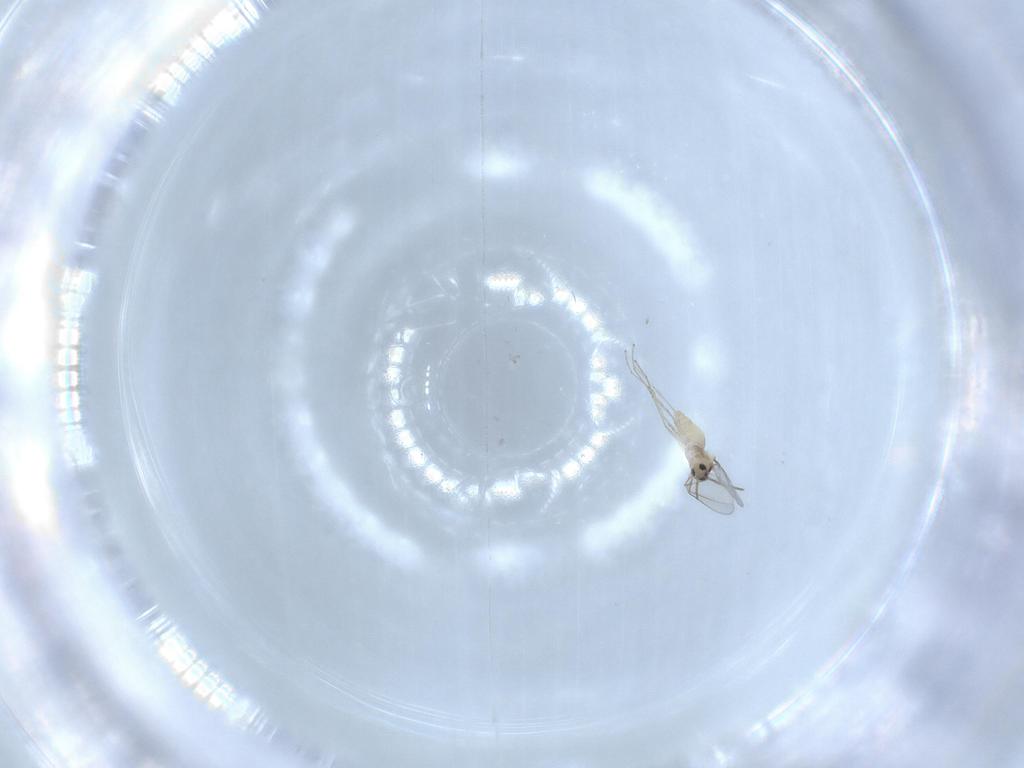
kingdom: Animalia
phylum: Arthropoda
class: Insecta
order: Diptera
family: Cecidomyiidae
